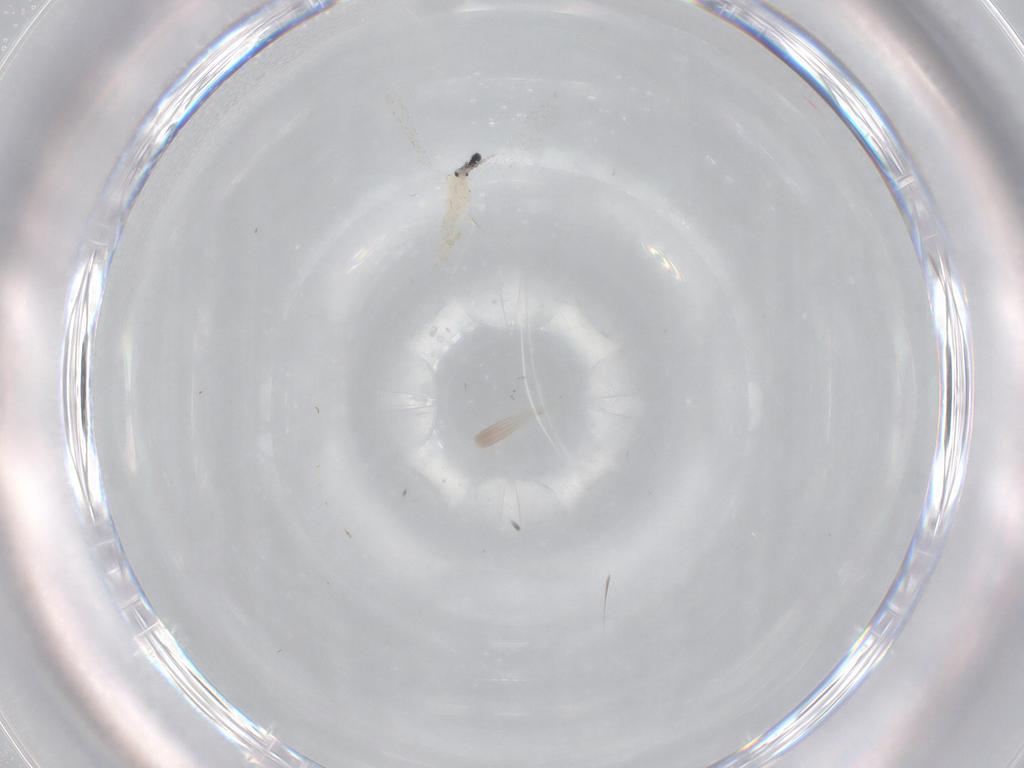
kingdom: Animalia
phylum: Arthropoda
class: Insecta
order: Diptera
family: Cecidomyiidae
